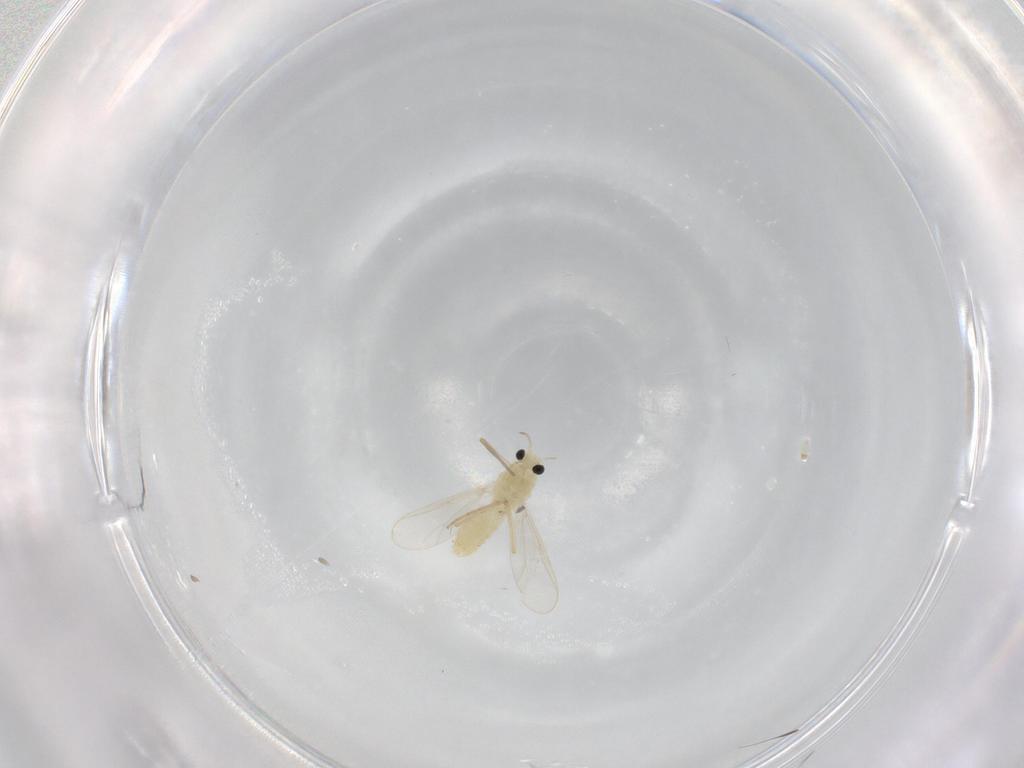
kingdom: Animalia
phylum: Arthropoda
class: Insecta
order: Diptera
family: Chironomidae
